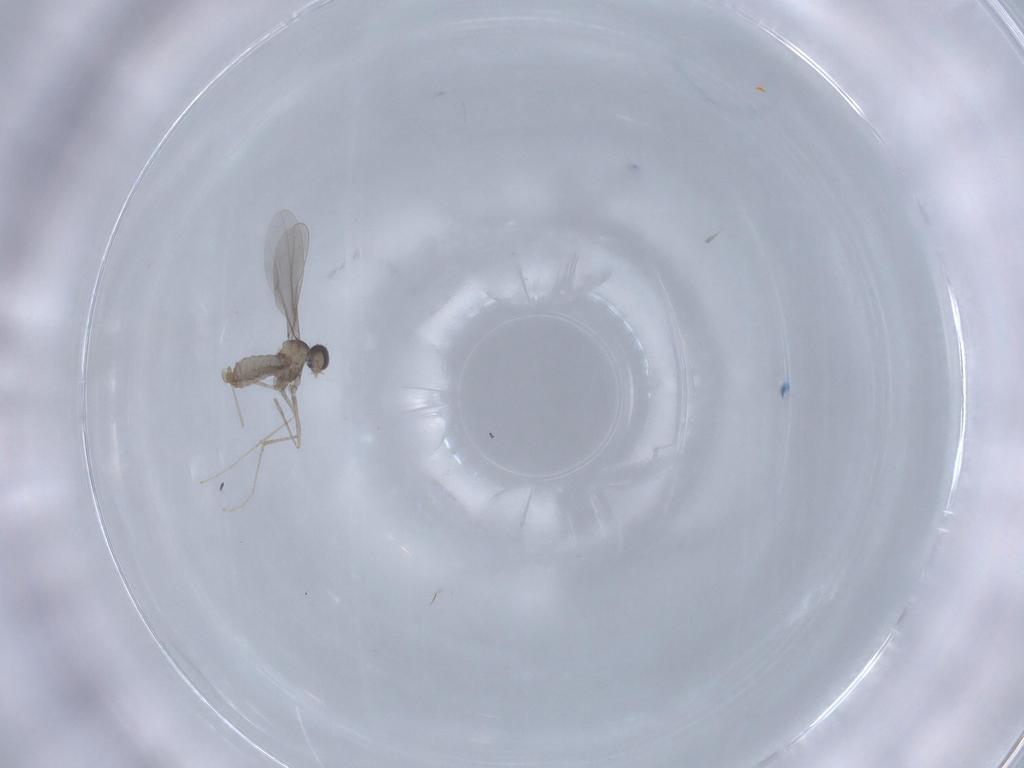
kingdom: Animalia
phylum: Arthropoda
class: Insecta
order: Diptera
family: Cecidomyiidae
